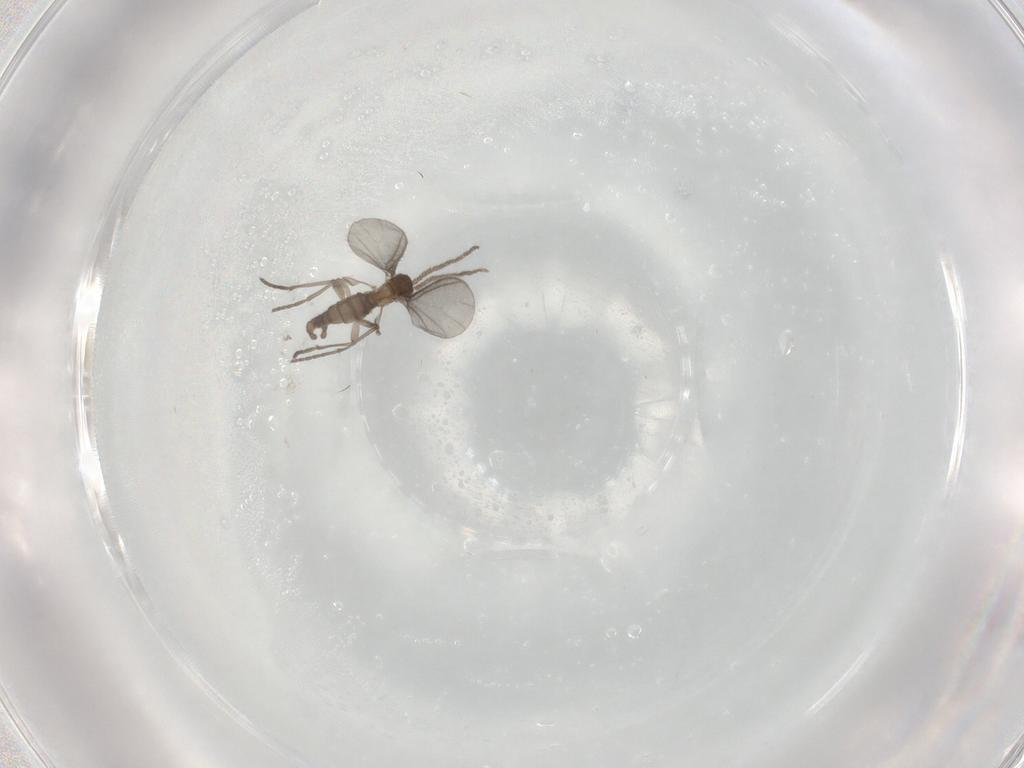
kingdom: Animalia
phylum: Arthropoda
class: Insecta
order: Diptera
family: Sciaridae
